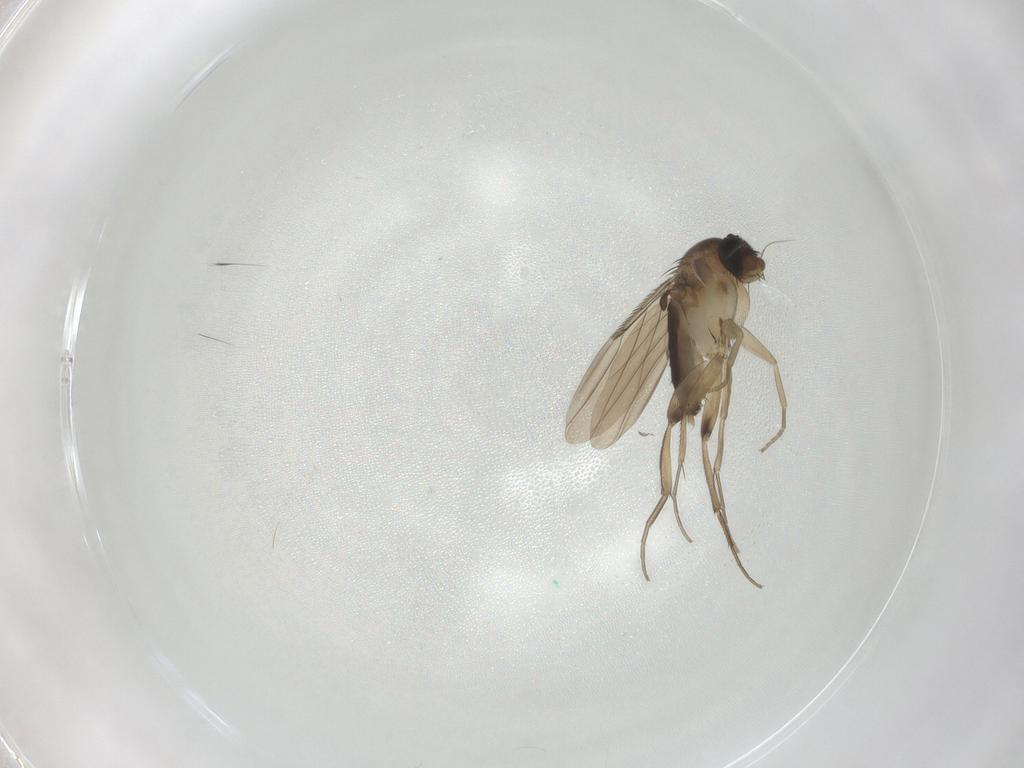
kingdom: Animalia
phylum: Arthropoda
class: Insecta
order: Diptera
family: Phoridae
